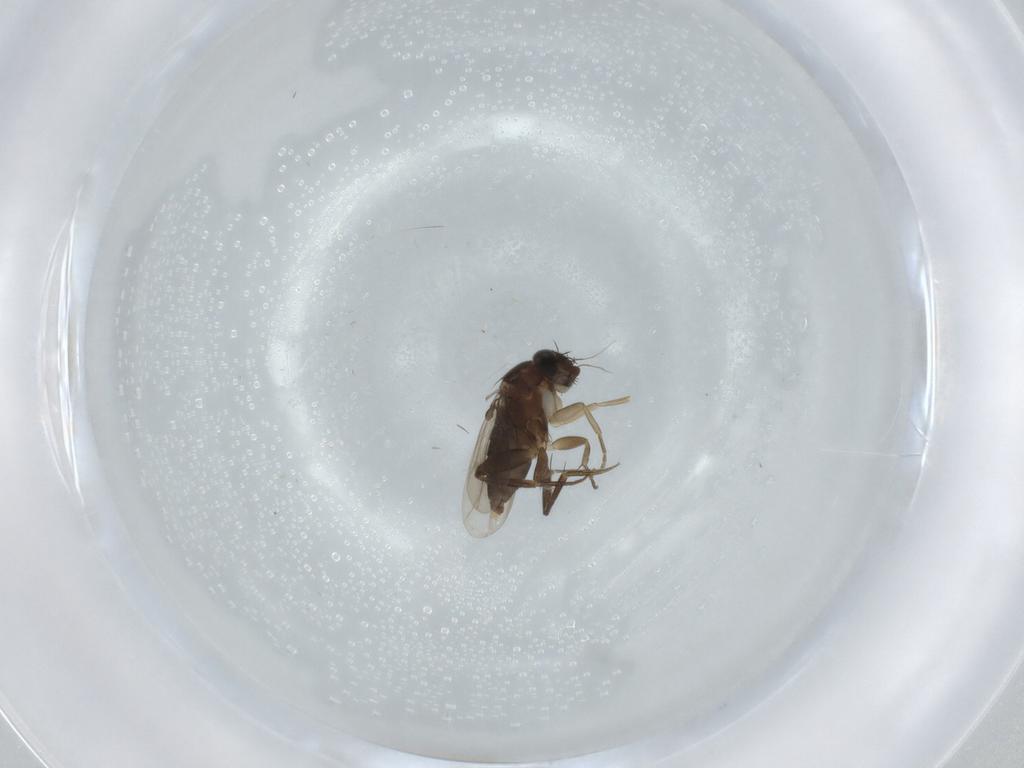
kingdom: Animalia
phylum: Arthropoda
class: Insecta
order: Diptera
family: Phoridae
